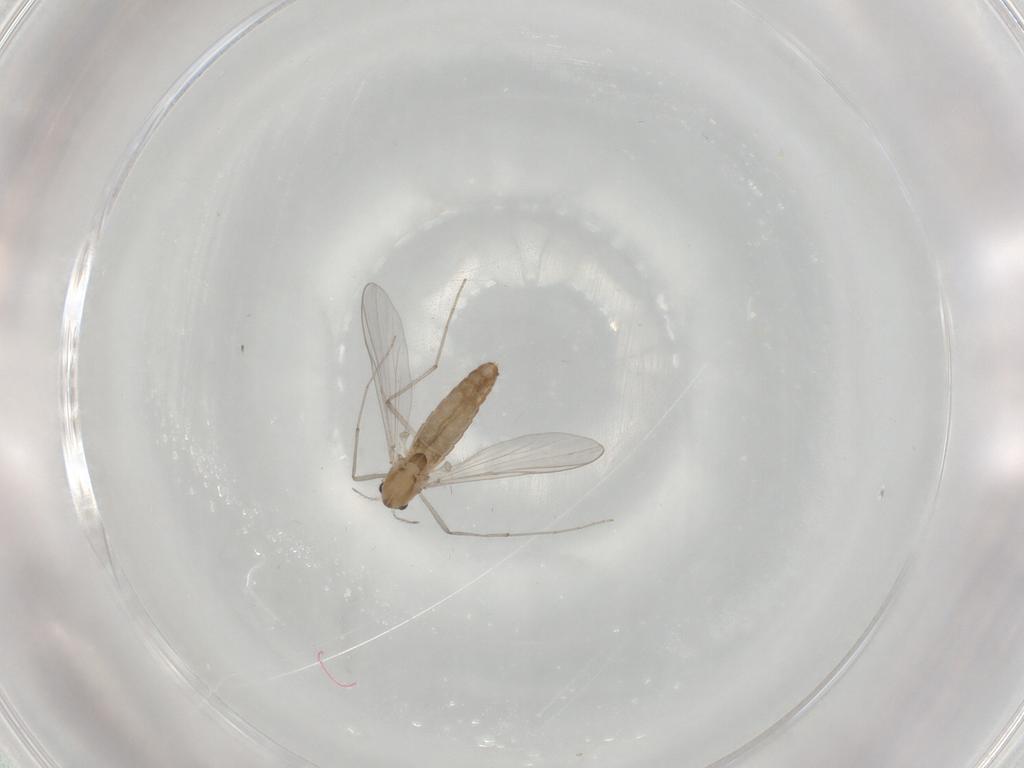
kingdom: Animalia
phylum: Arthropoda
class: Insecta
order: Diptera
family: Chironomidae
